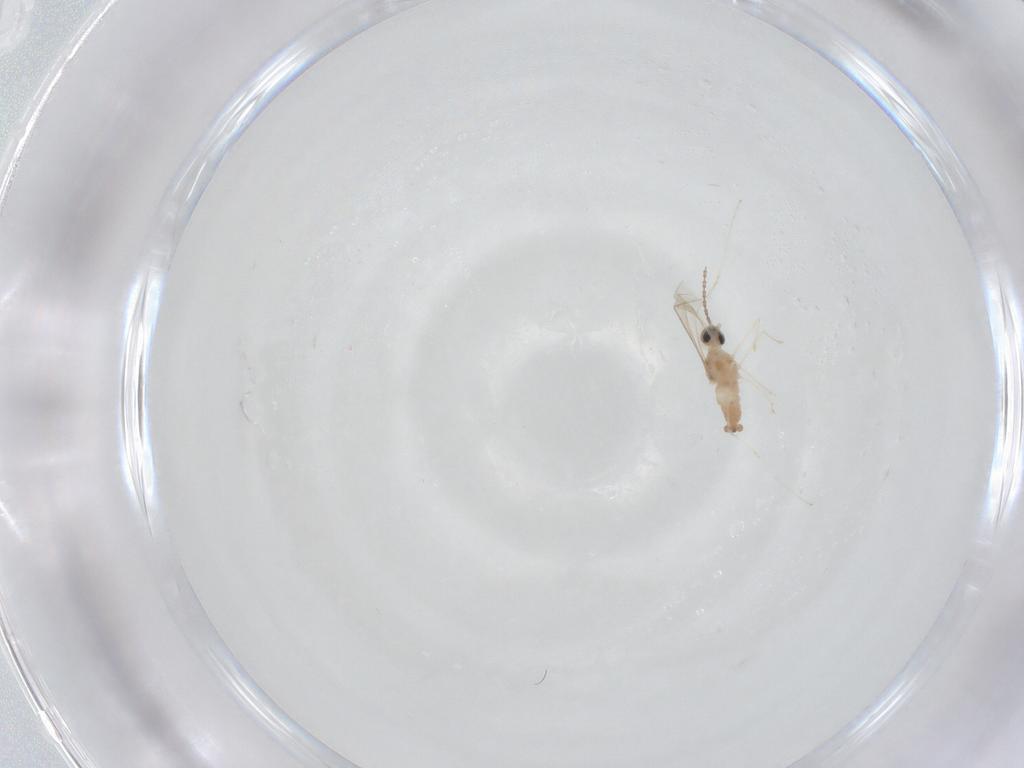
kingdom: Animalia
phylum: Arthropoda
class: Insecta
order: Diptera
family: Cecidomyiidae
